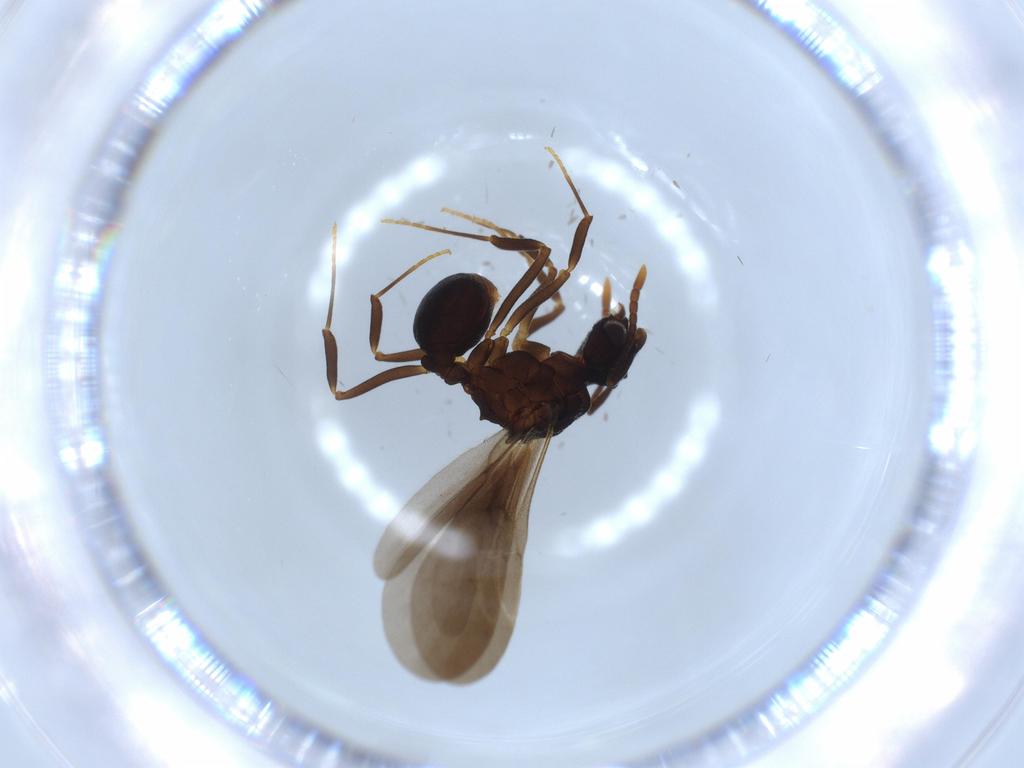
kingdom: Animalia
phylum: Arthropoda
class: Insecta
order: Hymenoptera
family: Formicidae
